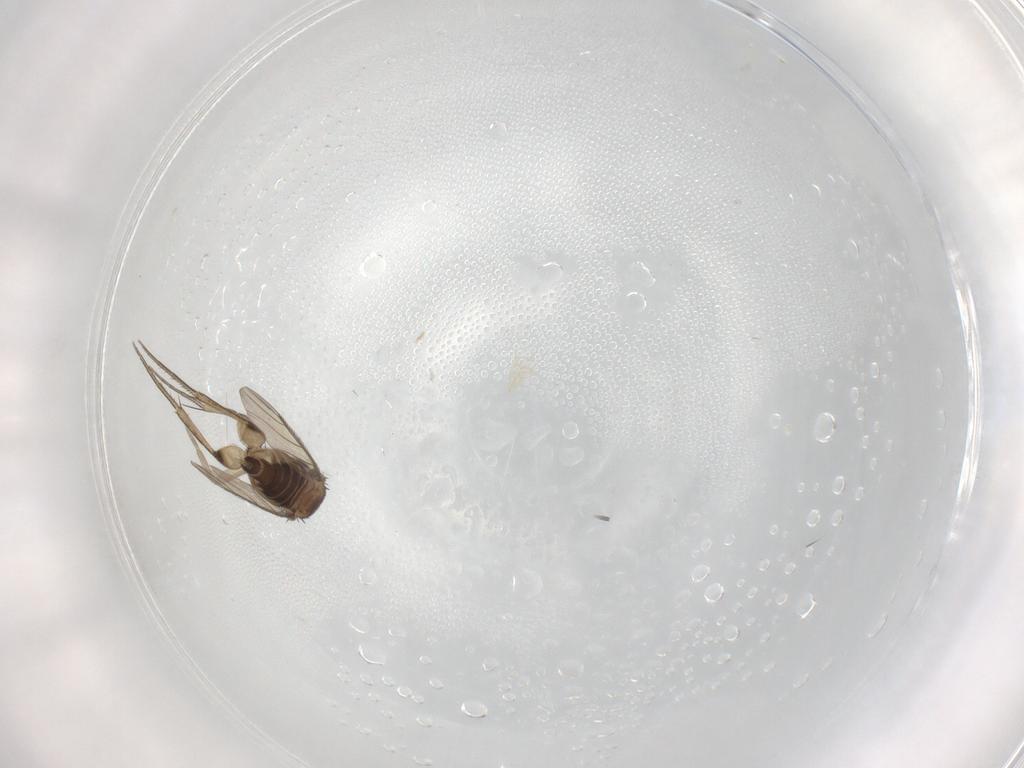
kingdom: Animalia
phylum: Arthropoda
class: Insecta
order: Diptera
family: Phoridae
